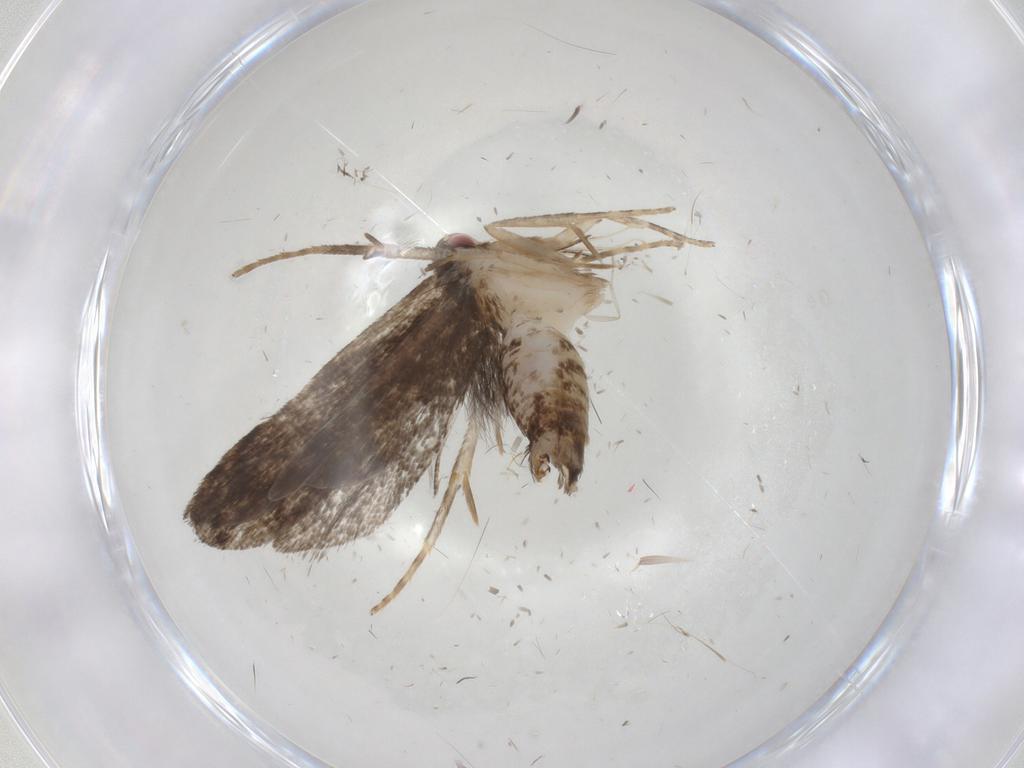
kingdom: Animalia
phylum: Arthropoda
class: Insecta
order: Lepidoptera
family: Gelechiidae
